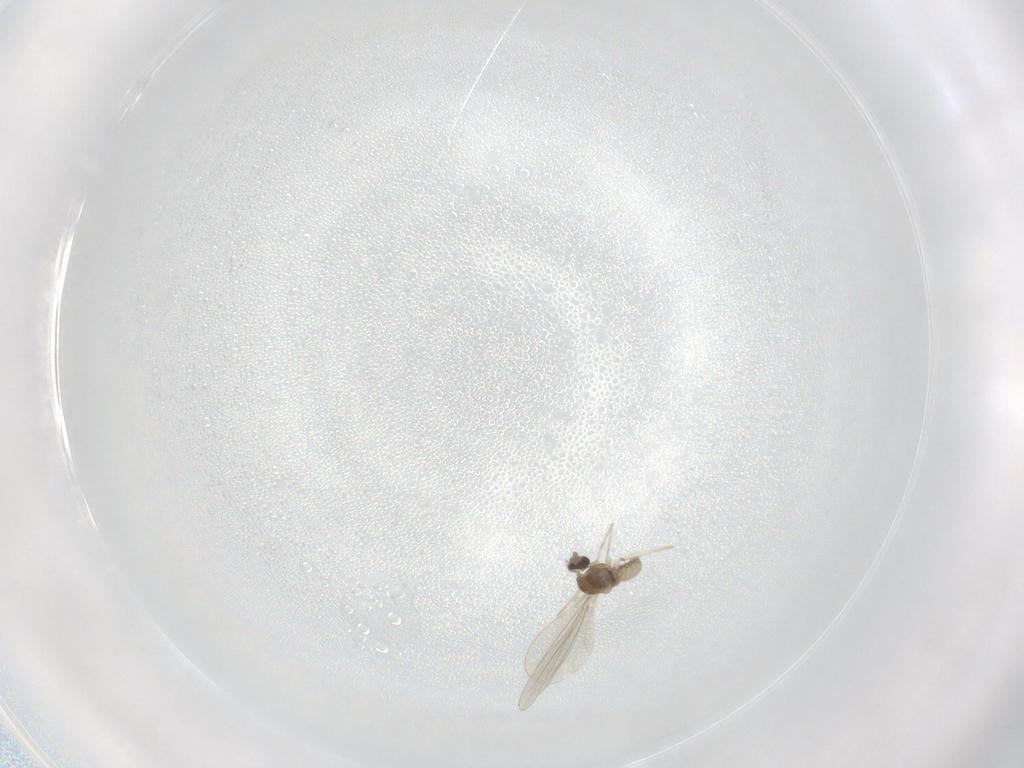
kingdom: Animalia
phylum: Arthropoda
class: Insecta
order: Diptera
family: Cecidomyiidae
